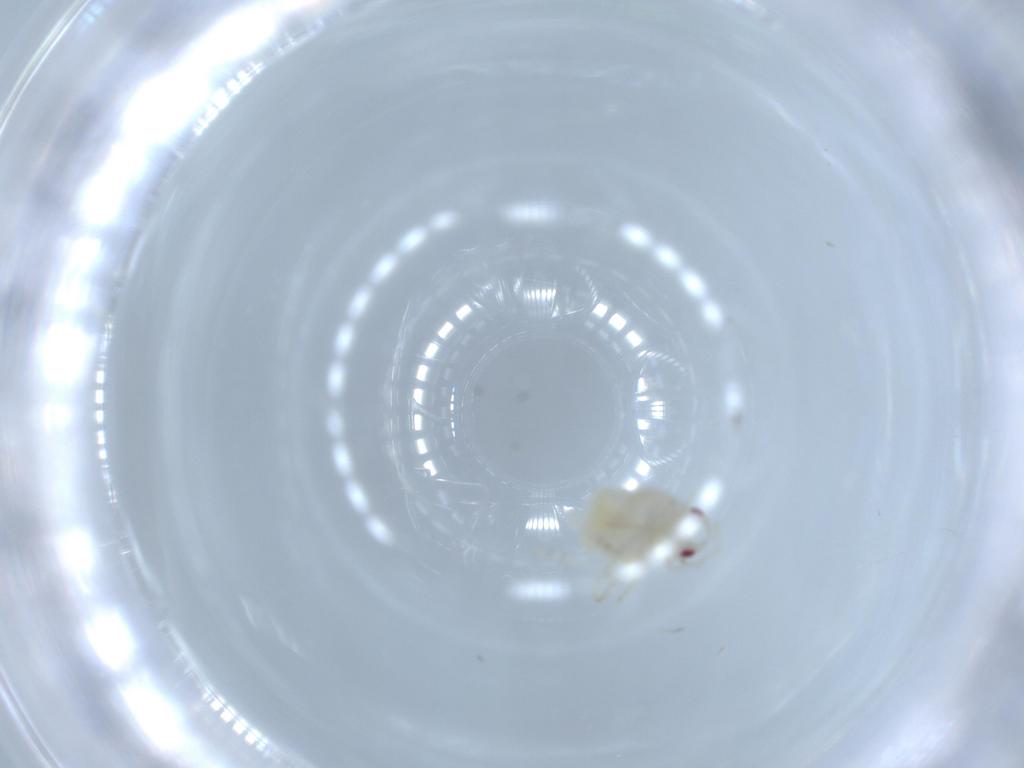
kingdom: Animalia
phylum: Arthropoda
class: Insecta
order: Hemiptera
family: Flatidae
